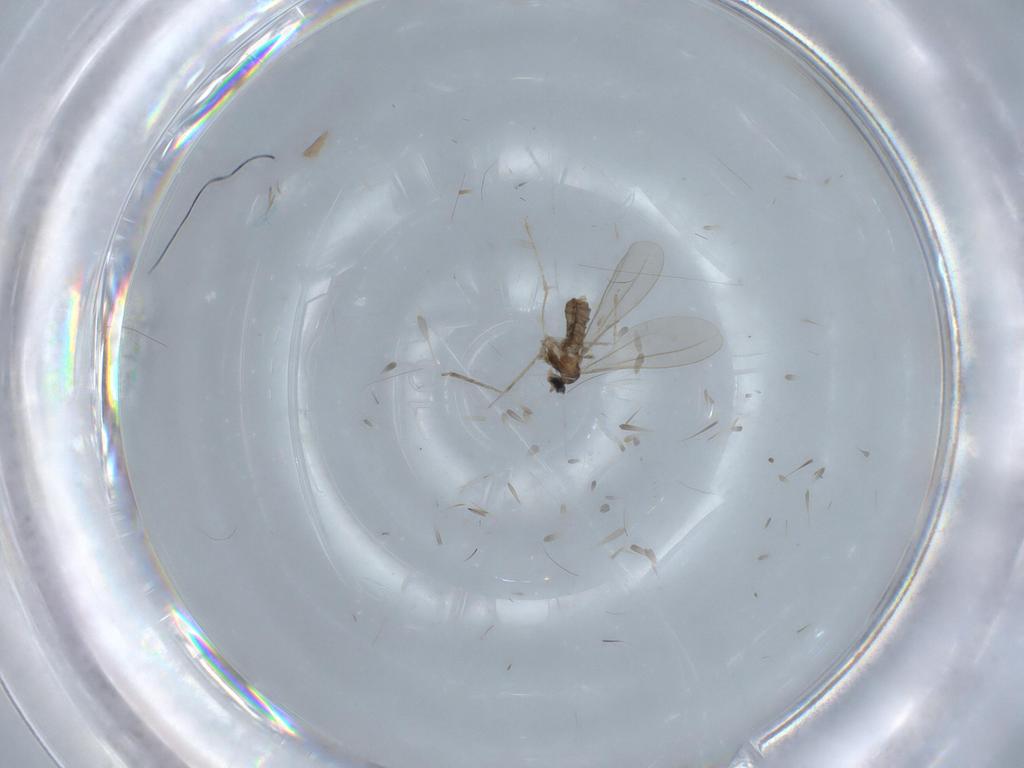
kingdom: Animalia
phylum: Arthropoda
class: Insecta
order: Diptera
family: Cecidomyiidae
